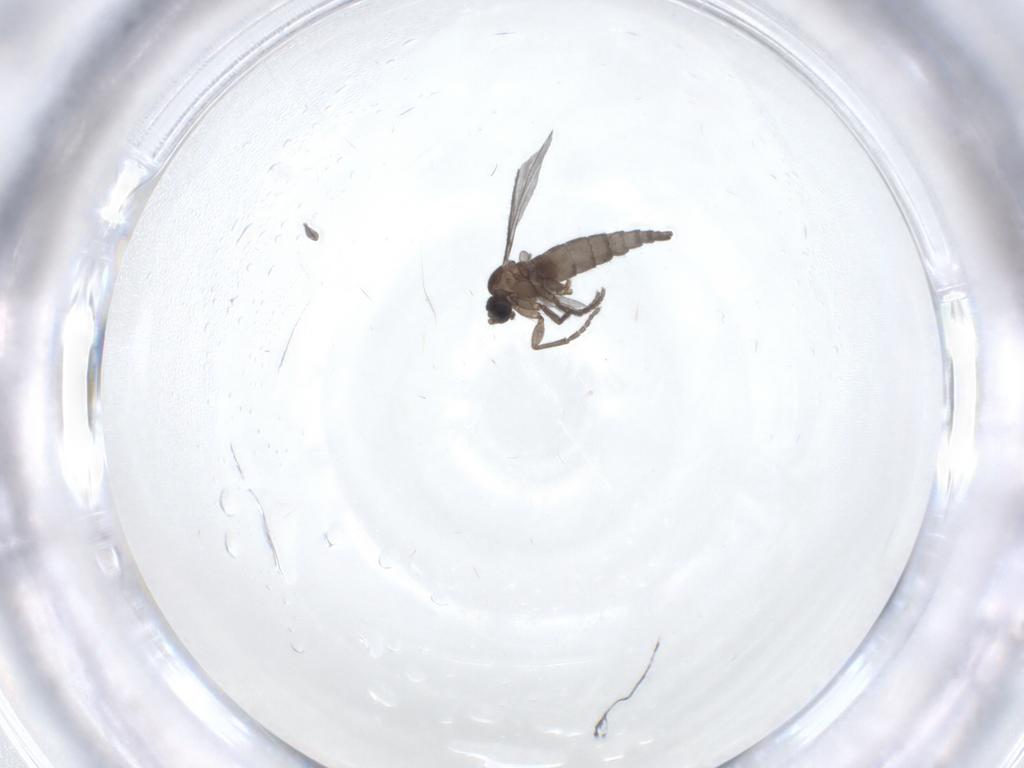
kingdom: Animalia
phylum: Arthropoda
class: Insecta
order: Diptera
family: Sciaridae
